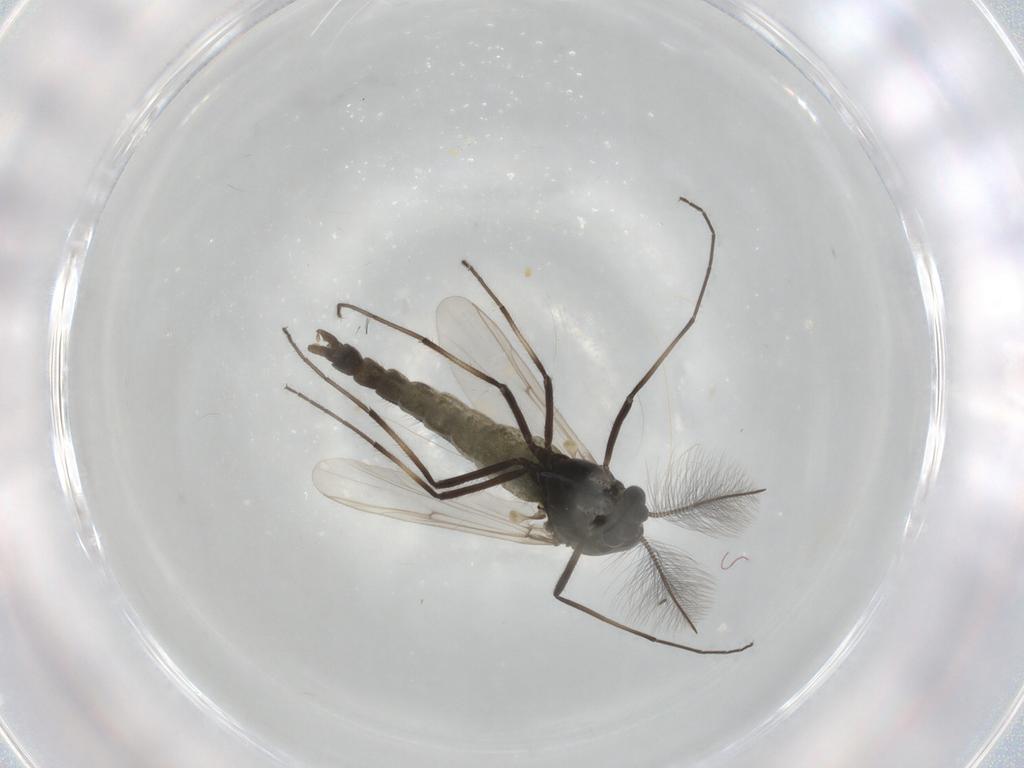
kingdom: Animalia
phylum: Arthropoda
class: Insecta
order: Diptera
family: Chironomidae
